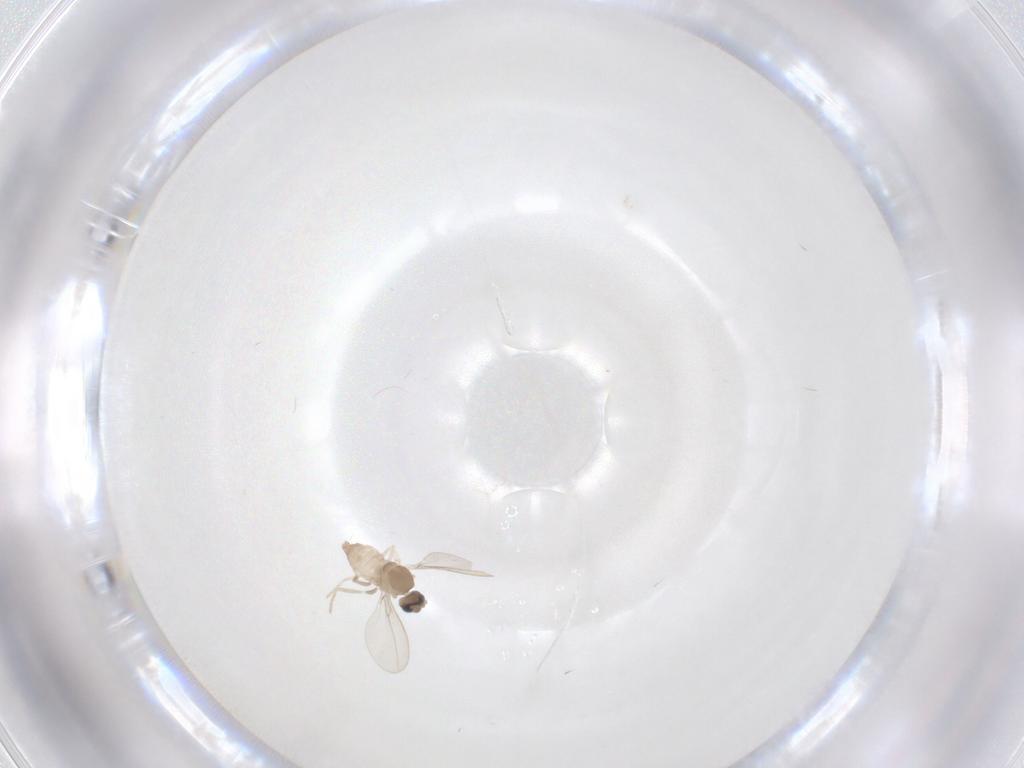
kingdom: Animalia
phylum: Arthropoda
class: Insecta
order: Diptera
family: Cecidomyiidae
